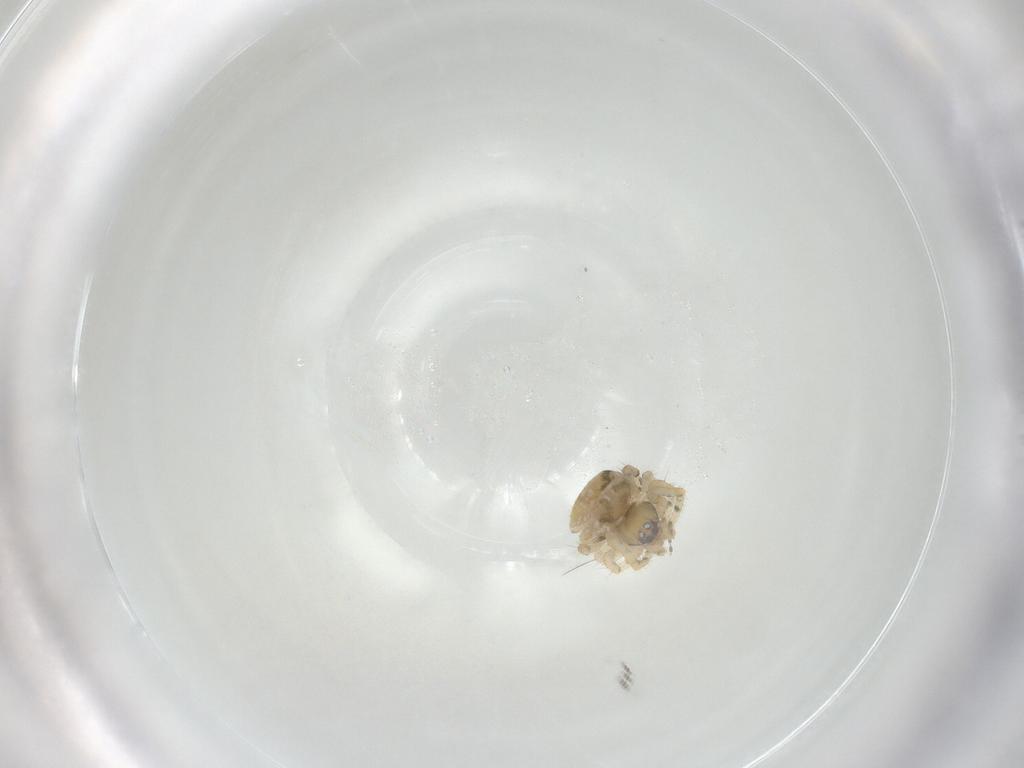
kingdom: Animalia
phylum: Arthropoda
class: Arachnida
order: Araneae
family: Theridiidae
